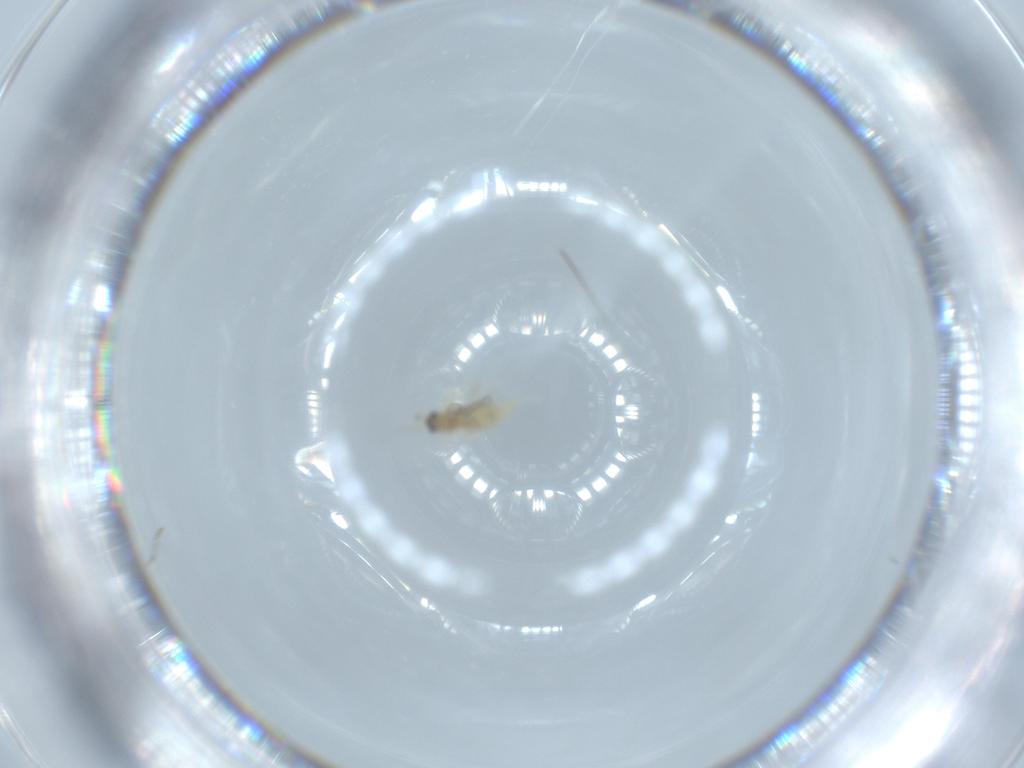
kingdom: Animalia
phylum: Arthropoda
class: Insecta
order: Diptera
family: Cecidomyiidae
